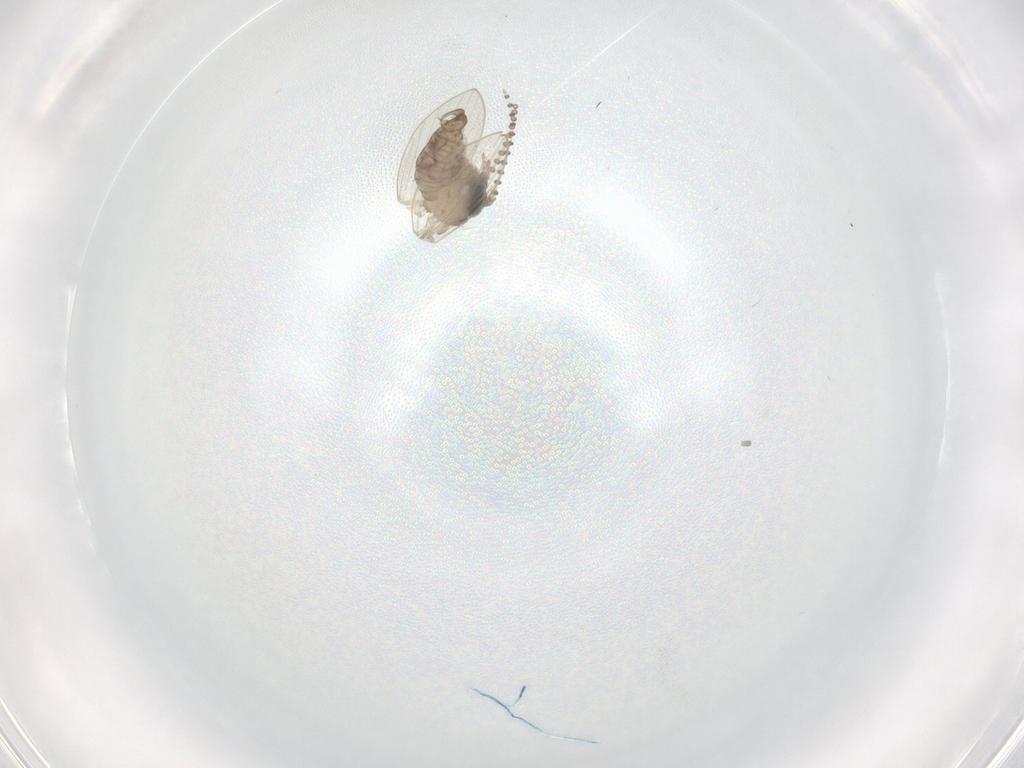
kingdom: Animalia
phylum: Arthropoda
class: Insecta
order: Diptera
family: Psychodidae
